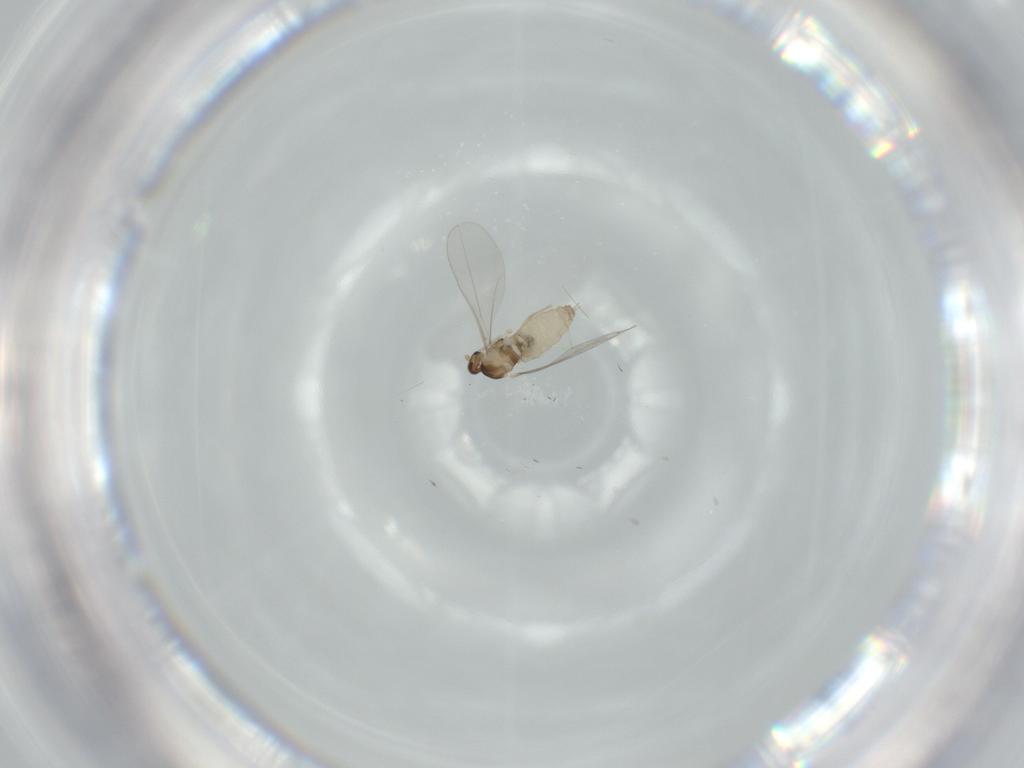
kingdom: Animalia
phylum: Arthropoda
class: Insecta
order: Diptera
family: Cecidomyiidae
